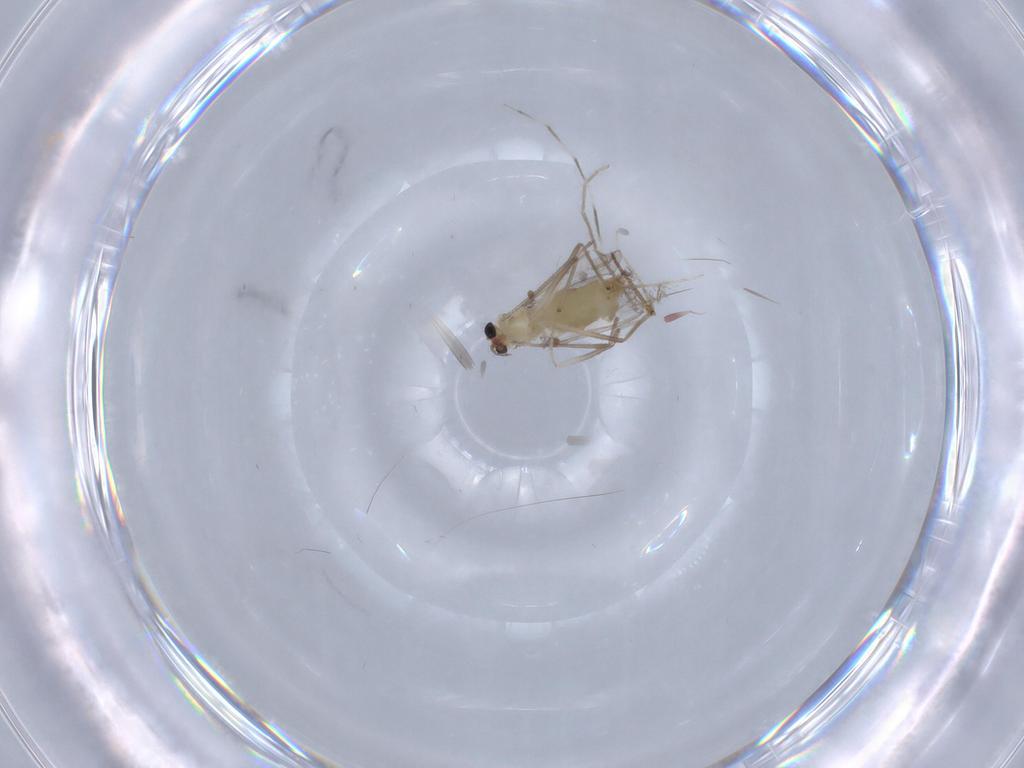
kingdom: Animalia
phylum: Arthropoda
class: Insecta
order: Diptera
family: Chironomidae
